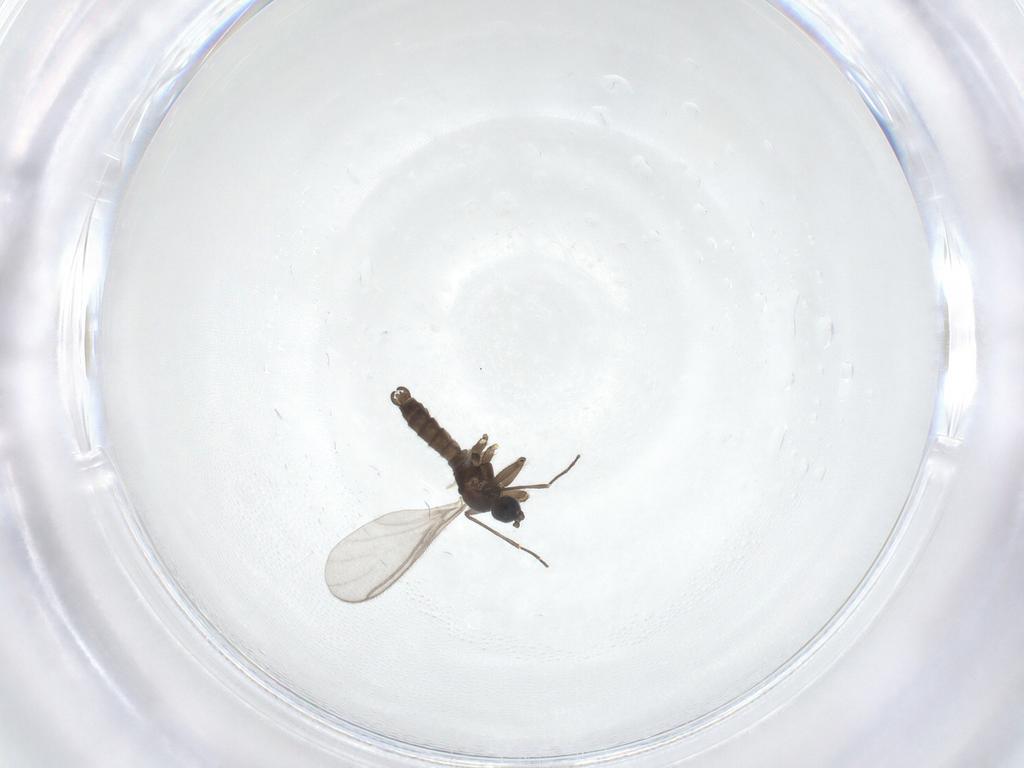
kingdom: Animalia
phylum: Arthropoda
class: Insecta
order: Diptera
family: Sciaridae
